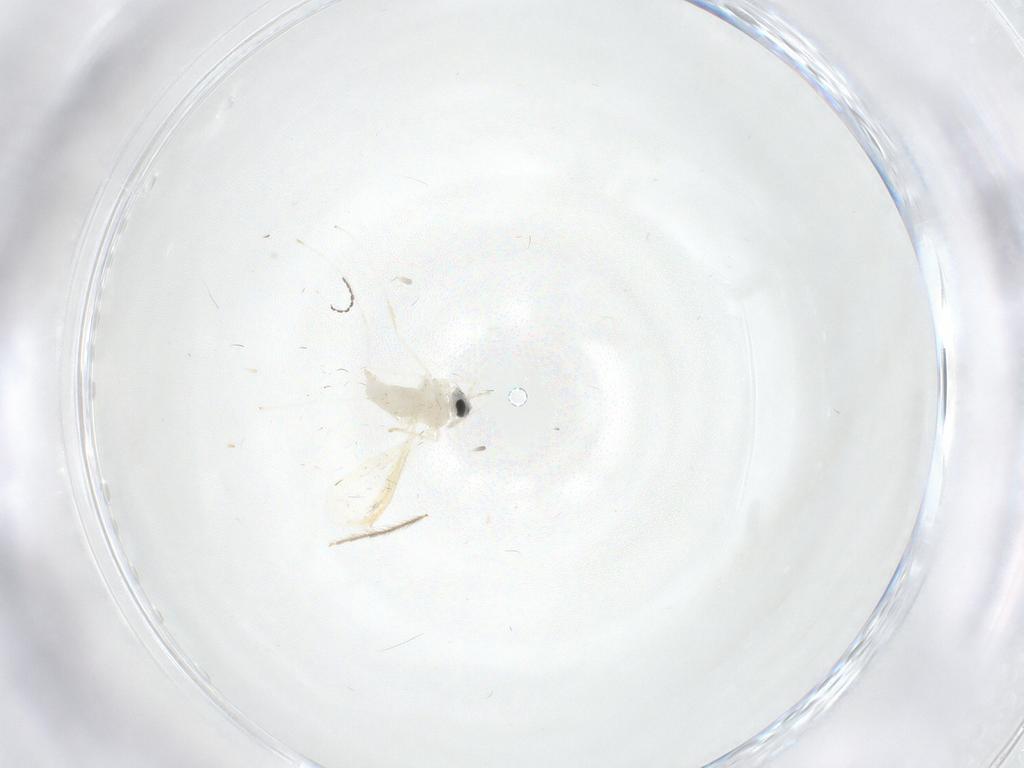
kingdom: Animalia
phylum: Arthropoda
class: Insecta
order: Diptera
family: Cecidomyiidae
